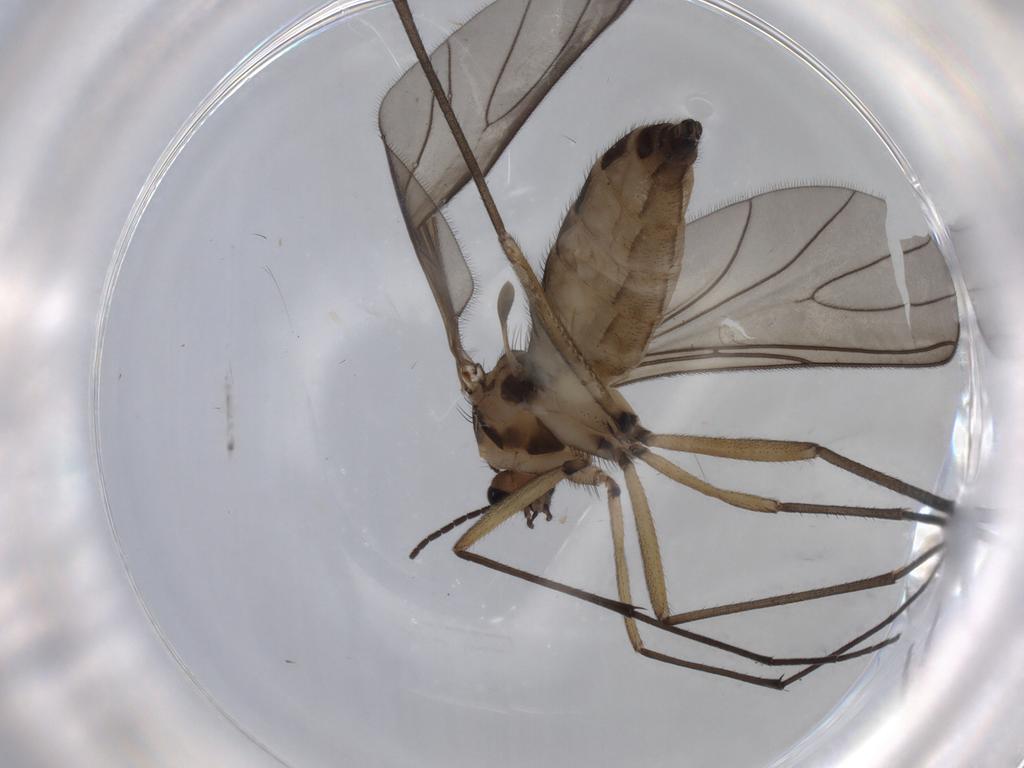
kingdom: Animalia
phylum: Arthropoda
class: Insecta
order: Diptera
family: Sciaridae
